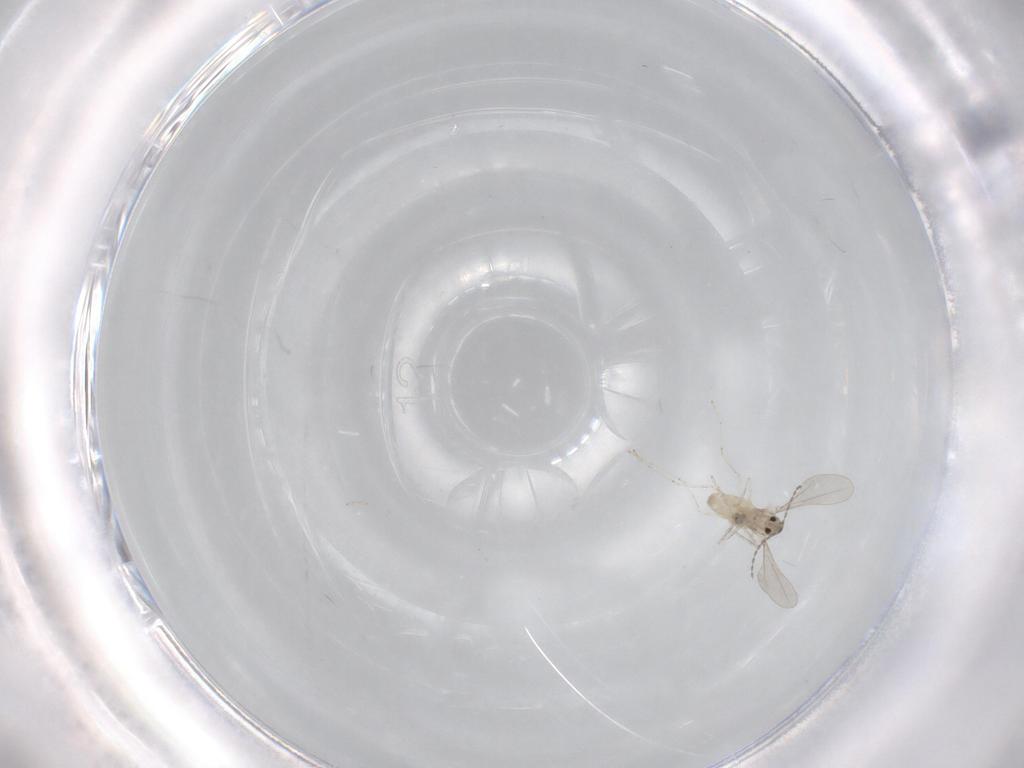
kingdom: Animalia
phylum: Arthropoda
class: Insecta
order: Diptera
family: Cecidomyiidae
